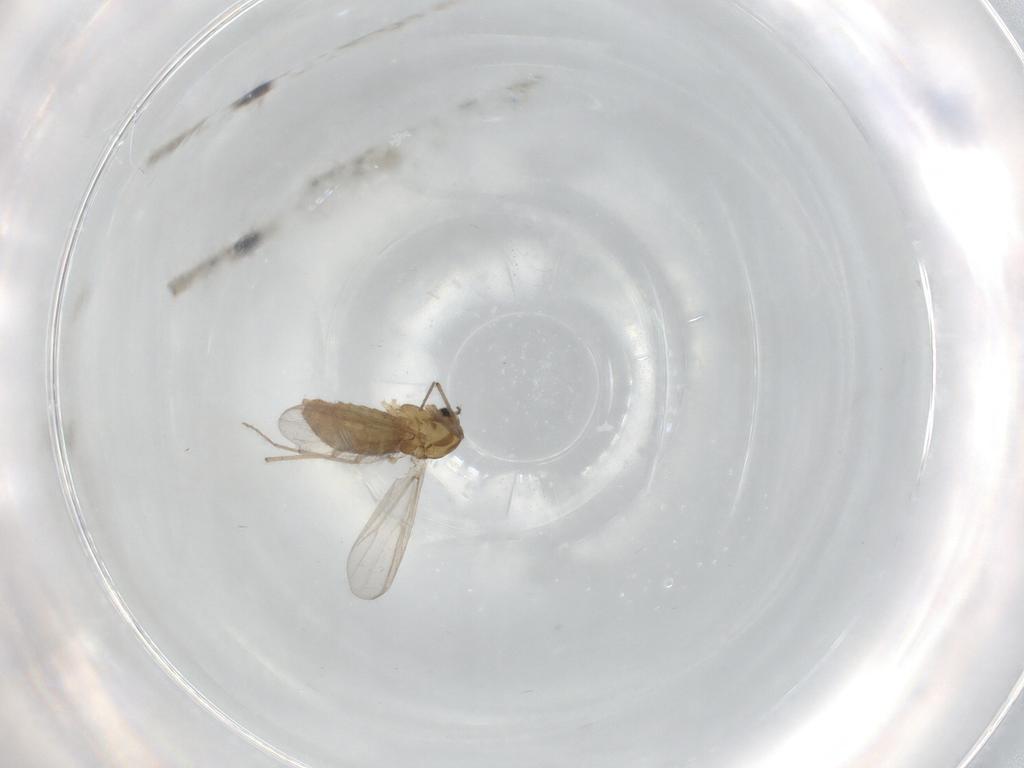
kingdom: Animalia
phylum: Arthropoda
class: Insecta
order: Diptera
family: Chironomidae
